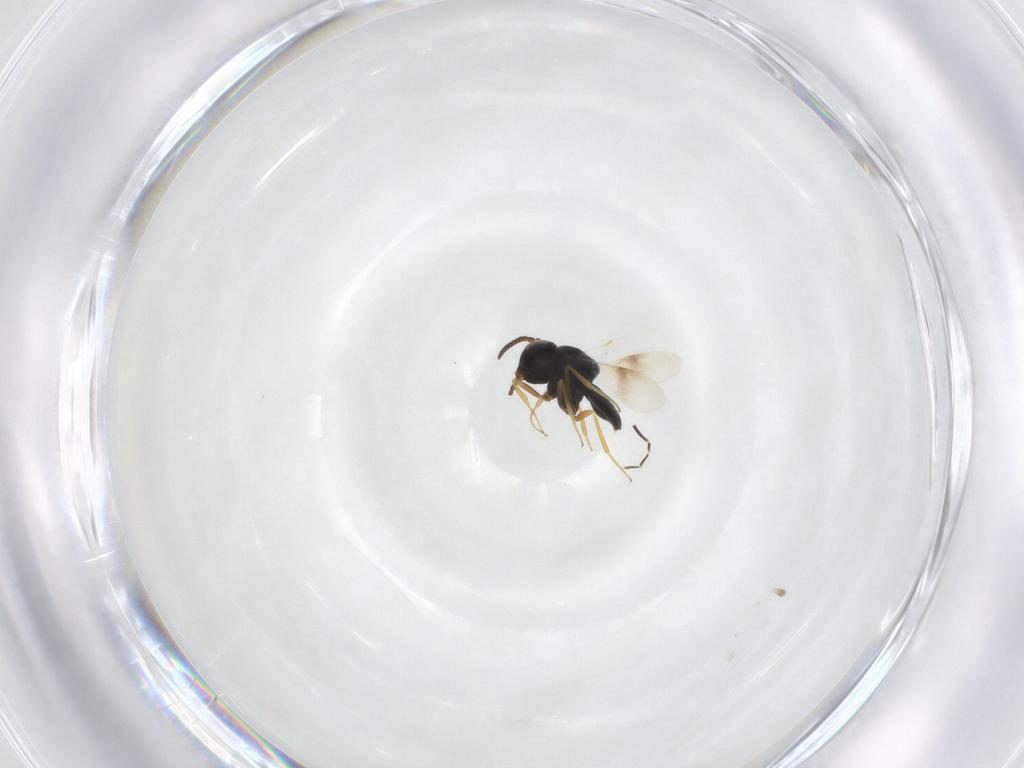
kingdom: Animalia
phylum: Arthropoda
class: Insecta
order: Hymenoptera
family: Scelionidae
